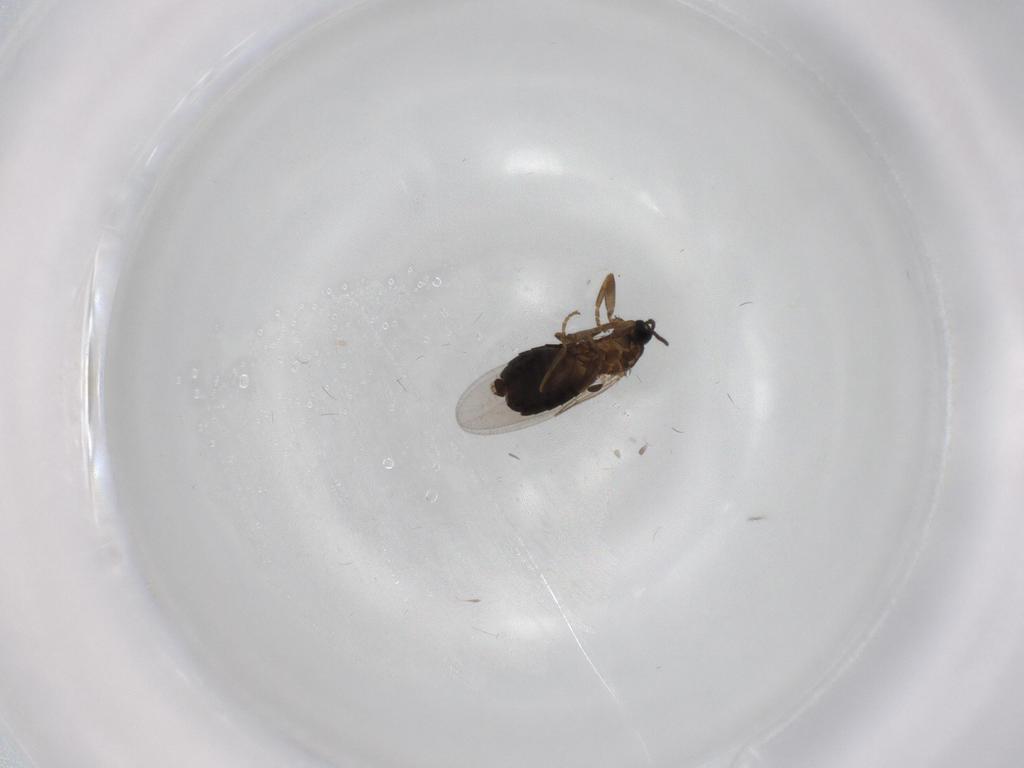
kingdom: Animalia
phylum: Arthropoda
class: Insecta
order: Diptera
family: Scatopsidae
